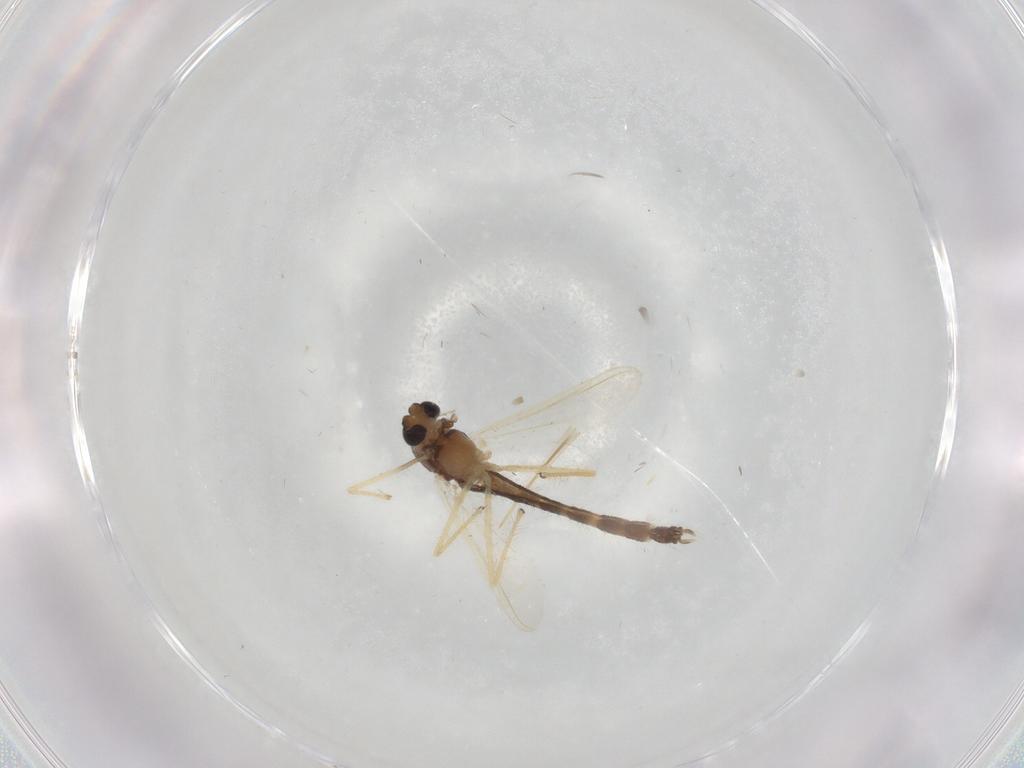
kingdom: Animalia
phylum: Arthropoda
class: Insecta
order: Diptera
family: Chironomidae
